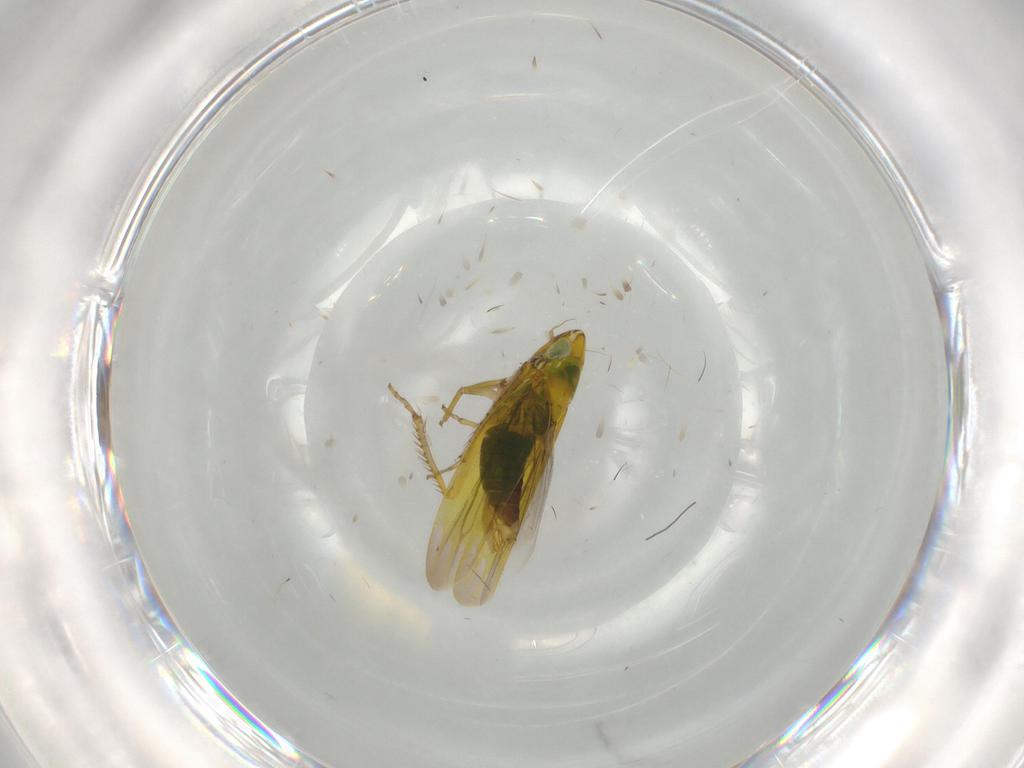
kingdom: Animalia
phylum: Arthropoda
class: Insecta
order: Hemiptera
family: Cicadellidae
